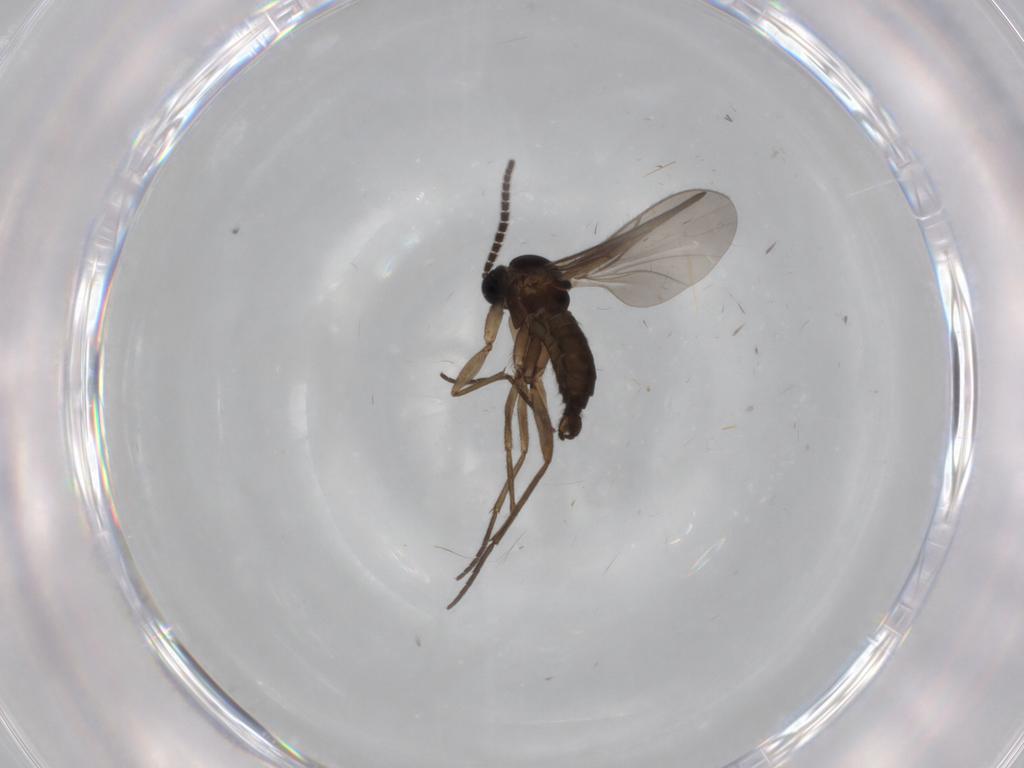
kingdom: Animalia
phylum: Arthropoda
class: Insecta
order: Diptera
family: Sciaridae
